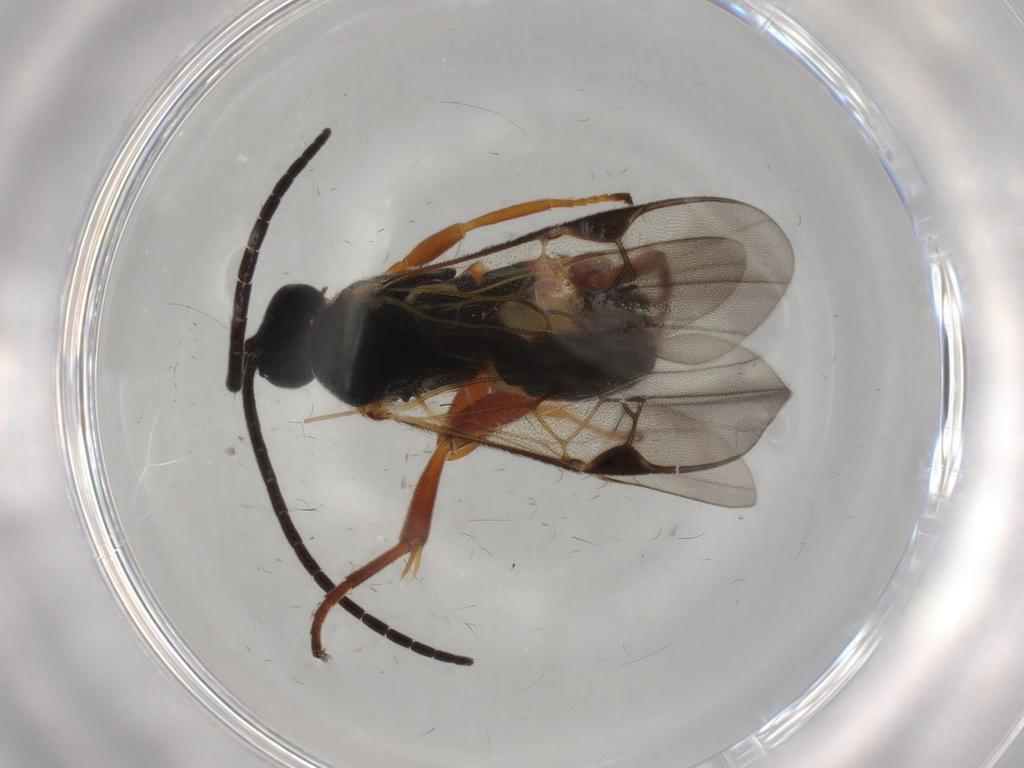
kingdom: Animalia
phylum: Arthropoda
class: Insecta
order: Hymenoptera
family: Braconidae
